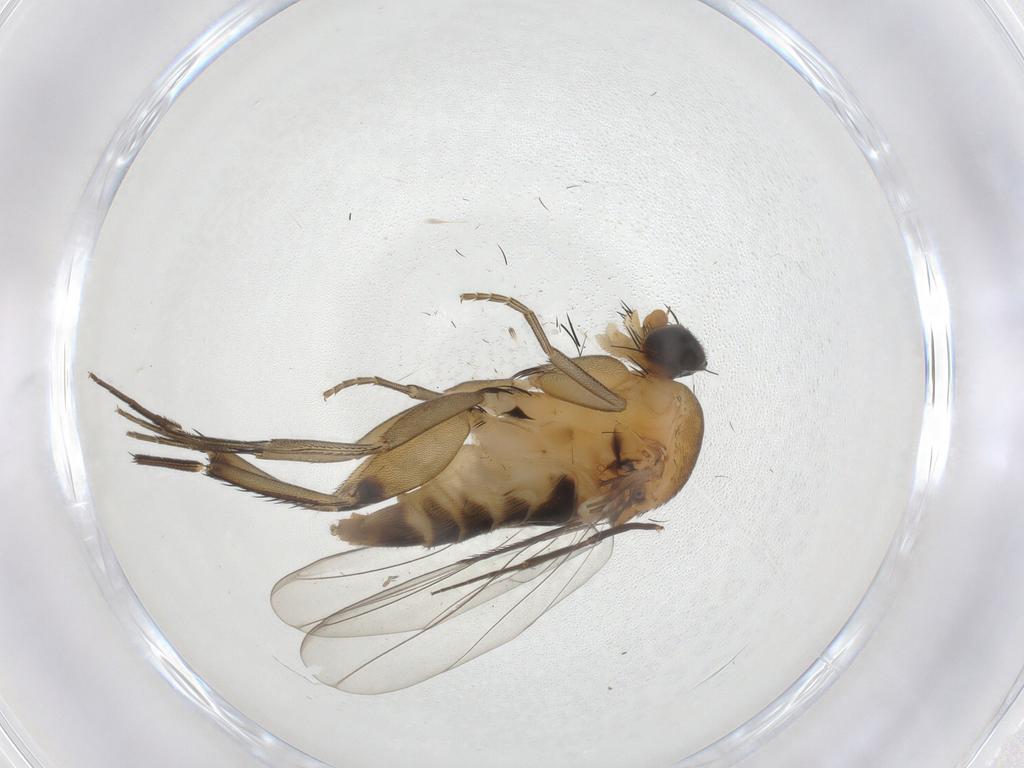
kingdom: Animalia
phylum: Arthropoda
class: Insecta
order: Diptera
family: Phoridae
